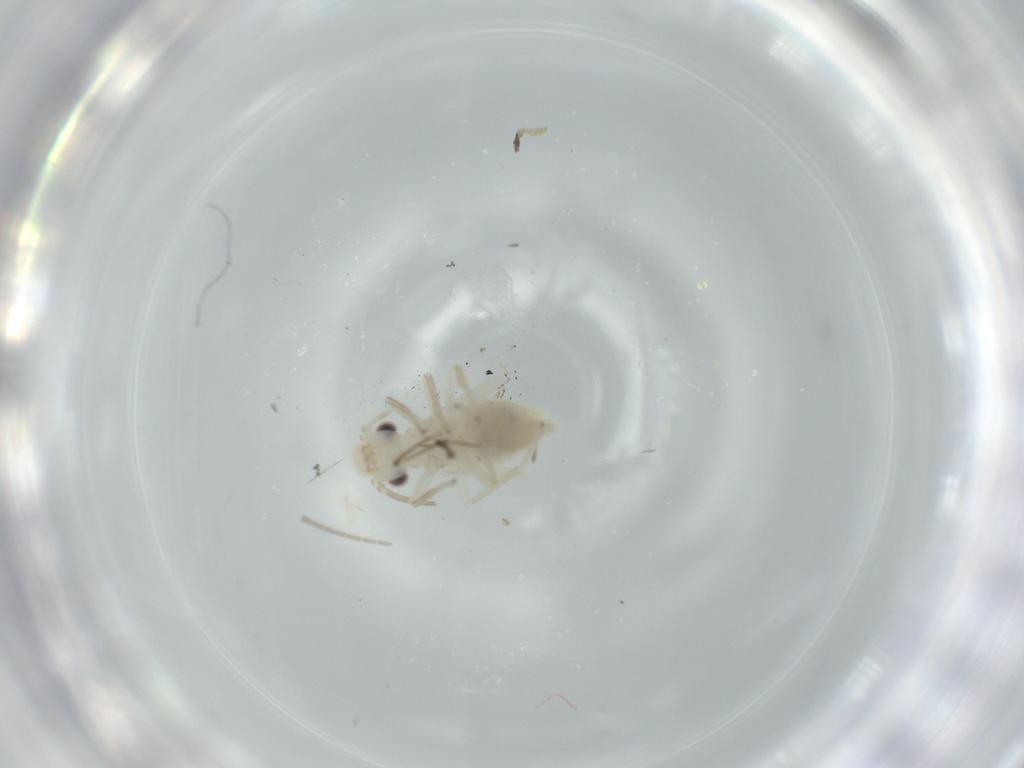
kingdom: Animalia
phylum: Arthropoda
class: Insecta
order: Psocodea
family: Caeciliusidae
